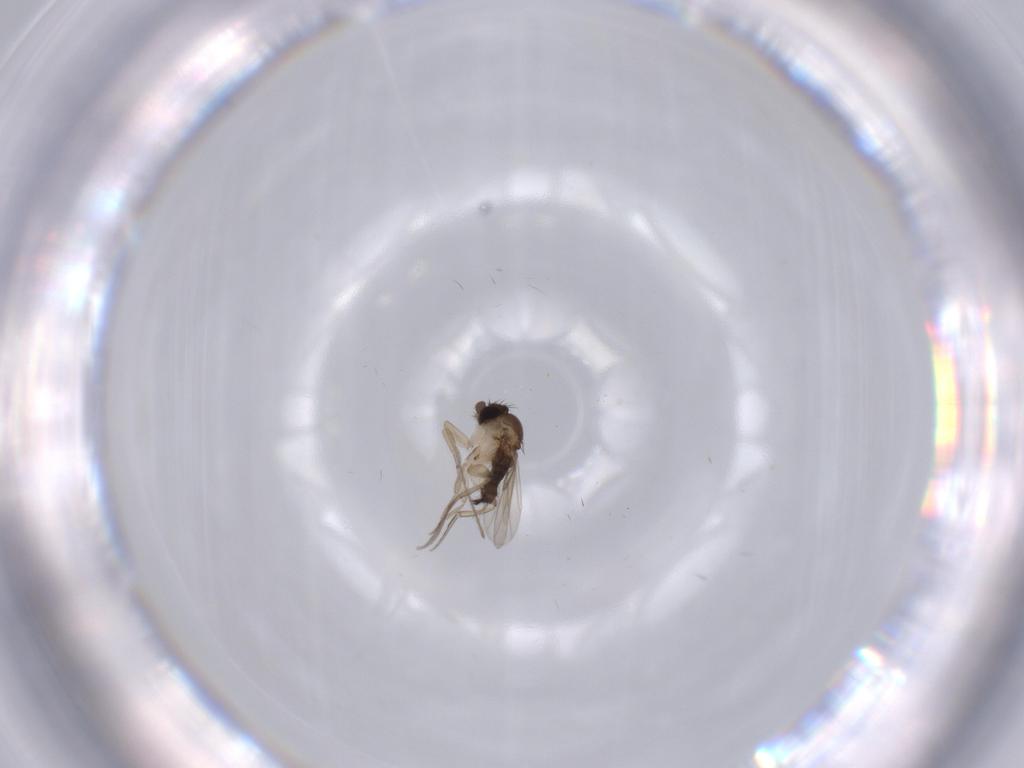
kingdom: Animalia
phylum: Arthropoda
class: Insecta
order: Diptera
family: Phoridae
